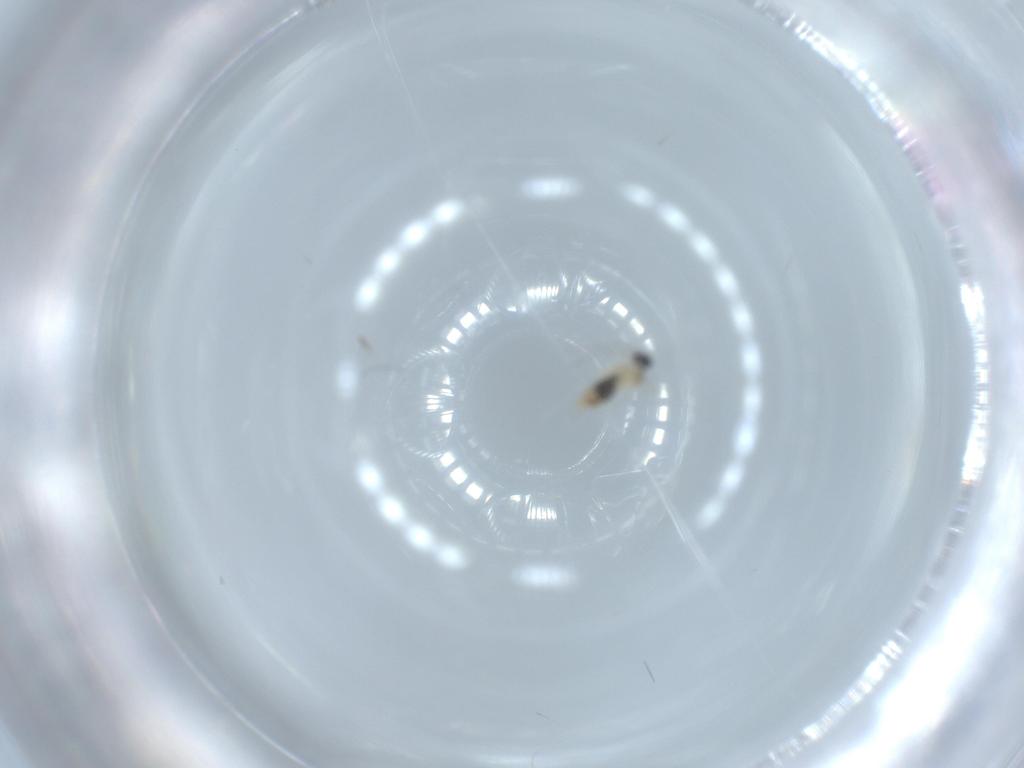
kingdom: Animalia
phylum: Arthropoda
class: Insecta
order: Diptera
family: Cecidomyiidae
